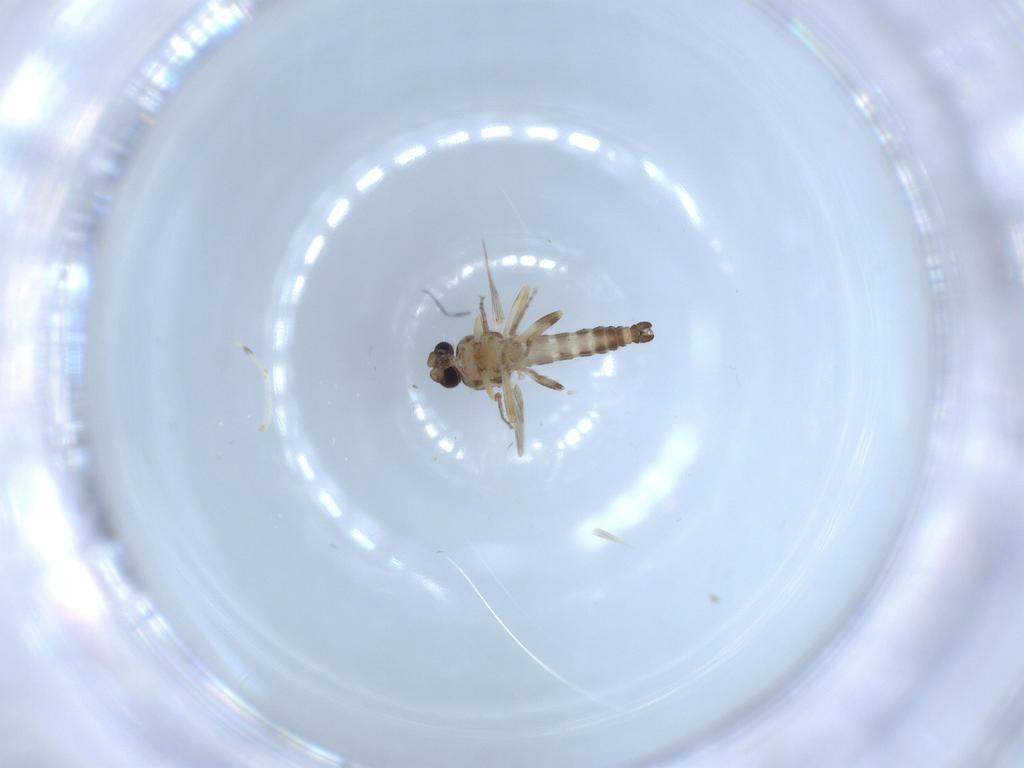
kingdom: Animalia
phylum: Arthropoda
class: Insecta
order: Diptera
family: Ceratopogonidae
